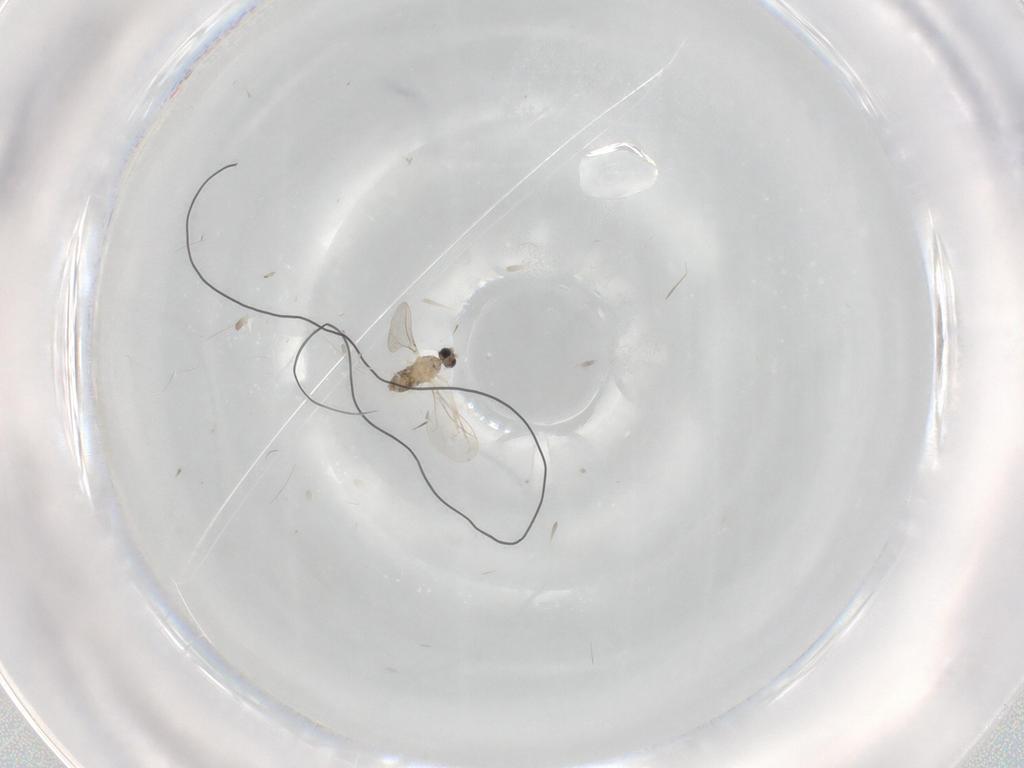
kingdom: Animalia
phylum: Arthropoda
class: Insecta
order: Diptera
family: Cecidomyiidae
